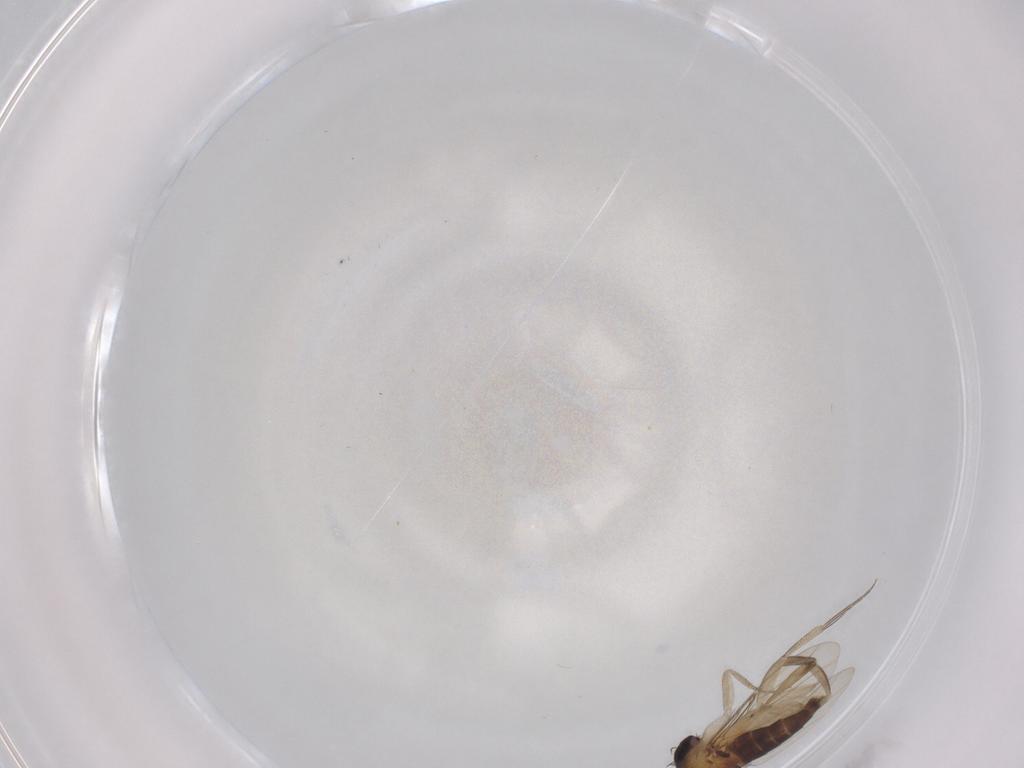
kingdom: Animalia
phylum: Arthropoda
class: Insecta
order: Diptera
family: Phoridae
